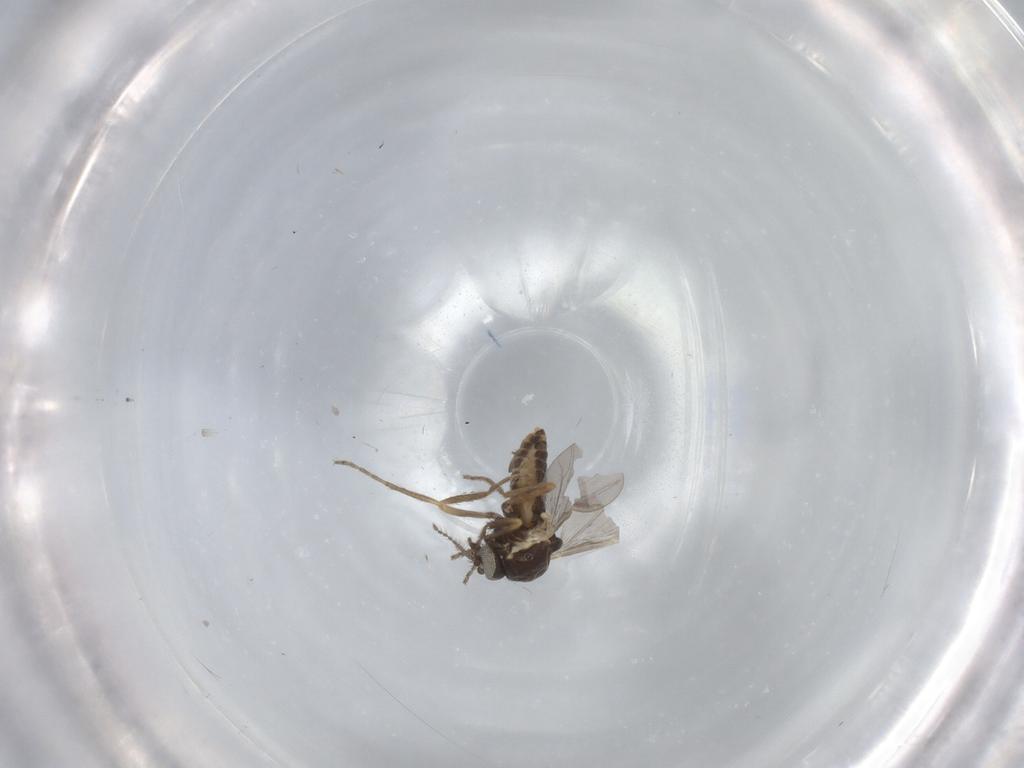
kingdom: Animalia
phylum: Arthropoda
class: Insecta
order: Diptera
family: Ceratopogonidae
